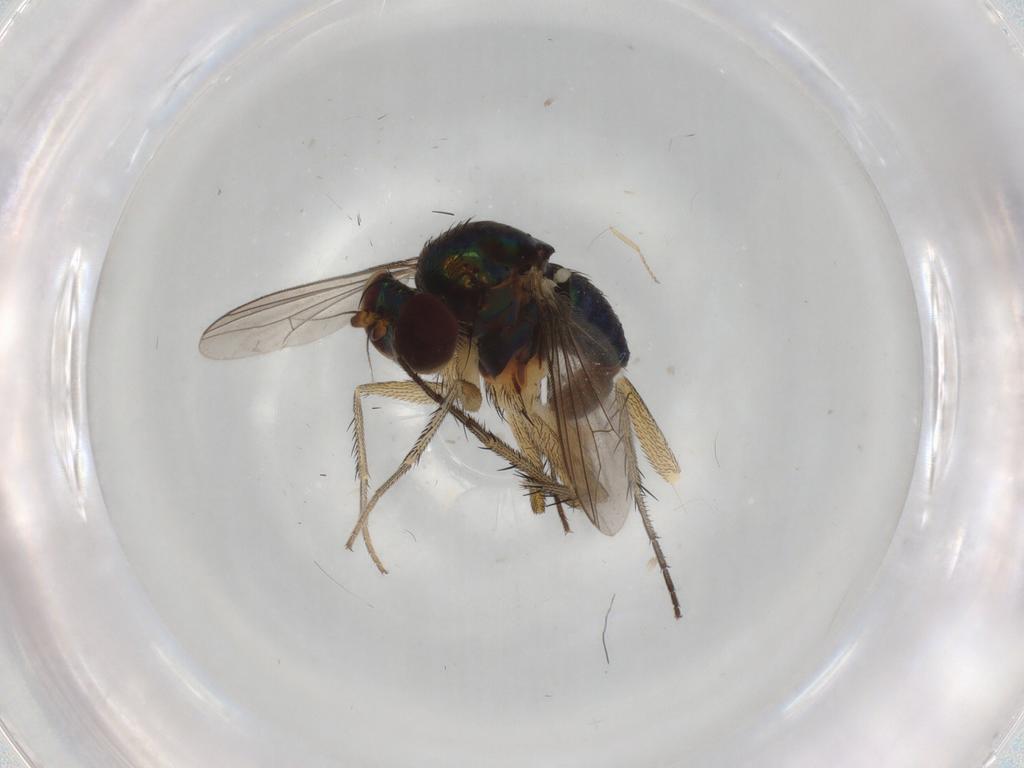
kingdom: Animalia
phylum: Arthropoda
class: Insecta
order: Diptera
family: Dolichopodidae
